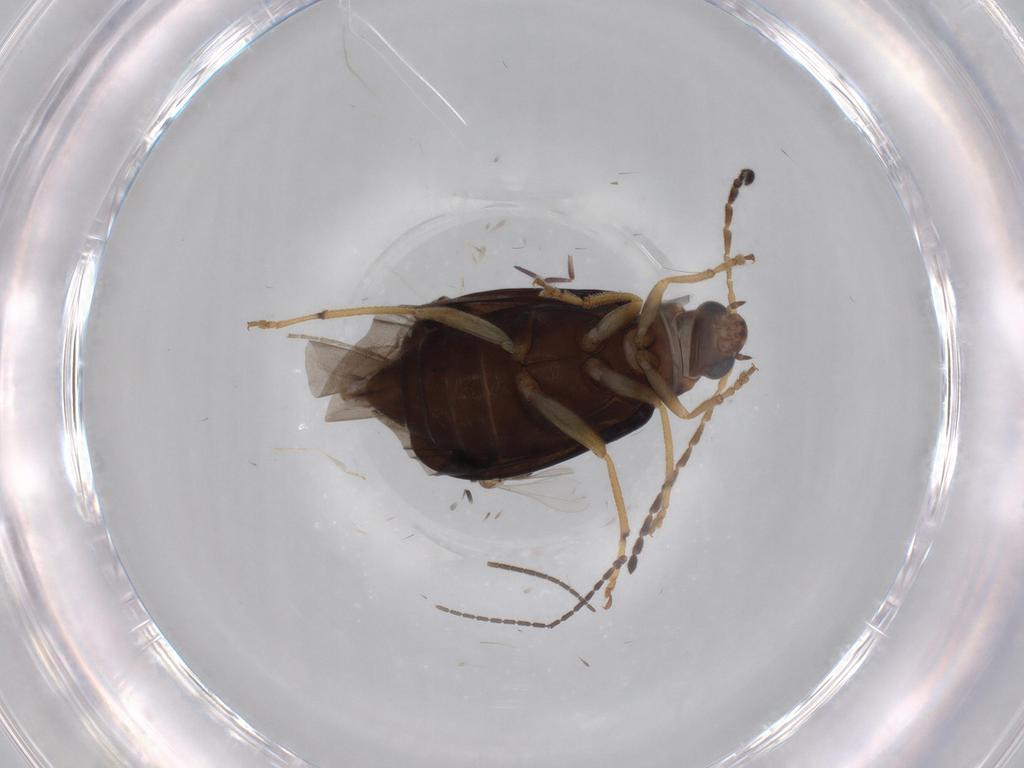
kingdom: Animalia
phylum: Arthropoda
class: Insecta
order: Coleoptera
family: Chrysomelidae
